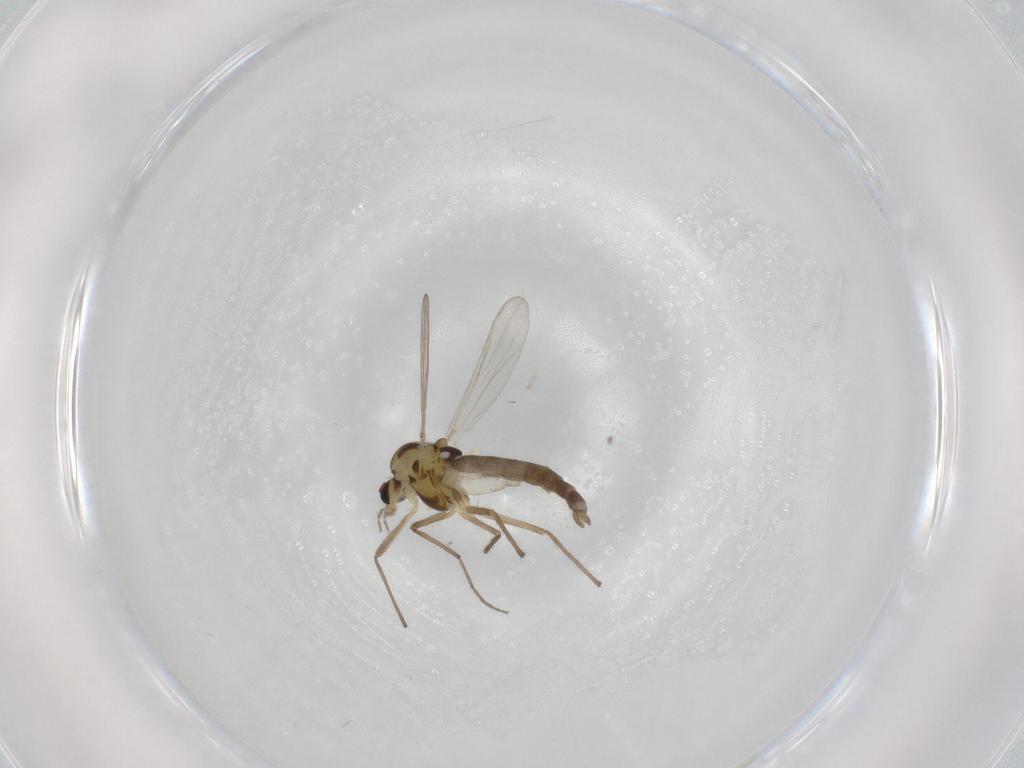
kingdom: Animalia
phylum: Arthropoda
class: Insecta
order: Diptera
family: Chironomidae
